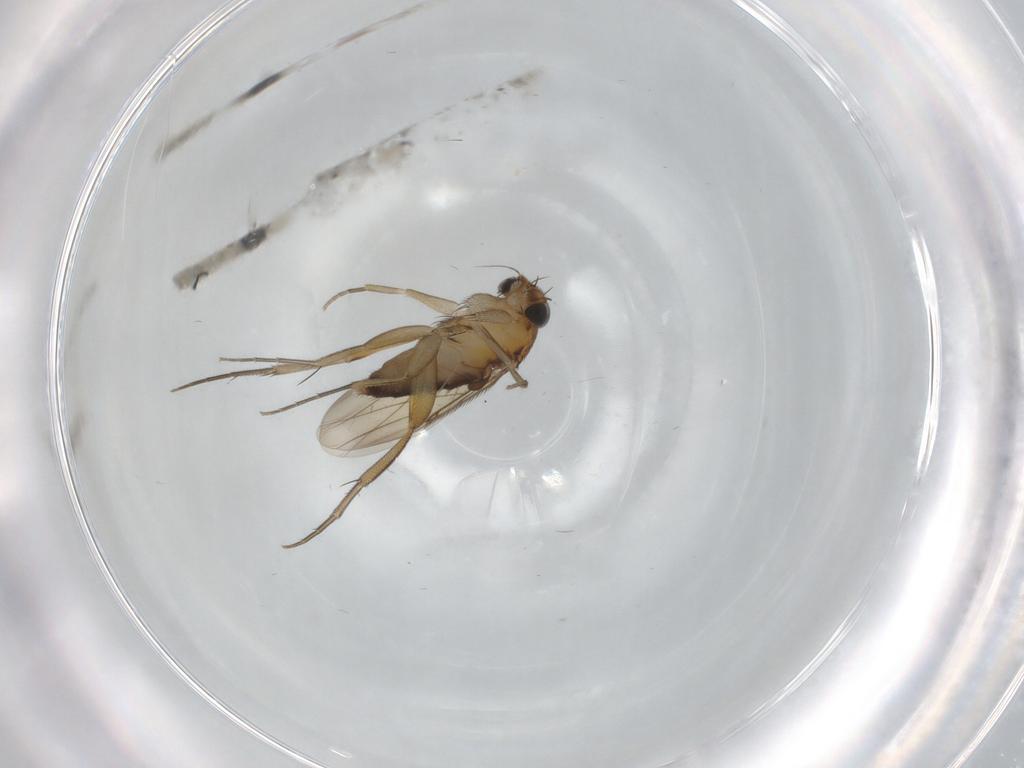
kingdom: Animalia
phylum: Arthropoda
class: Insecta
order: Diptera
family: Phoridae
